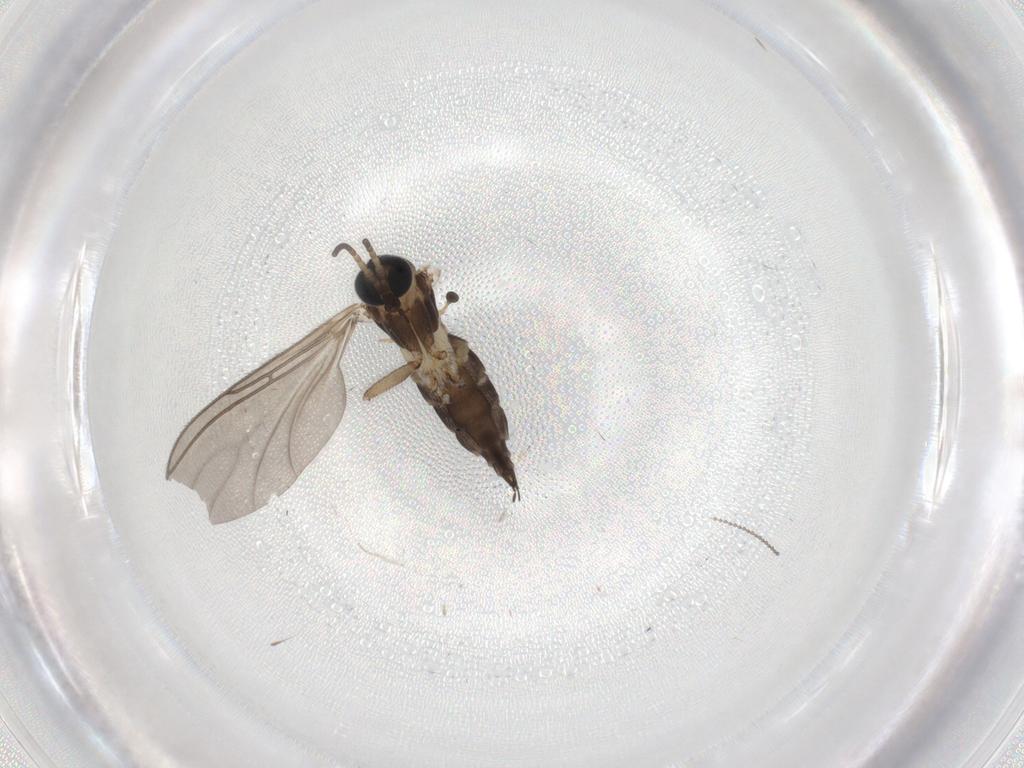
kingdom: Animalia
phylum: Arthropoda
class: Insecta
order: Diptera
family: Sciaridae
